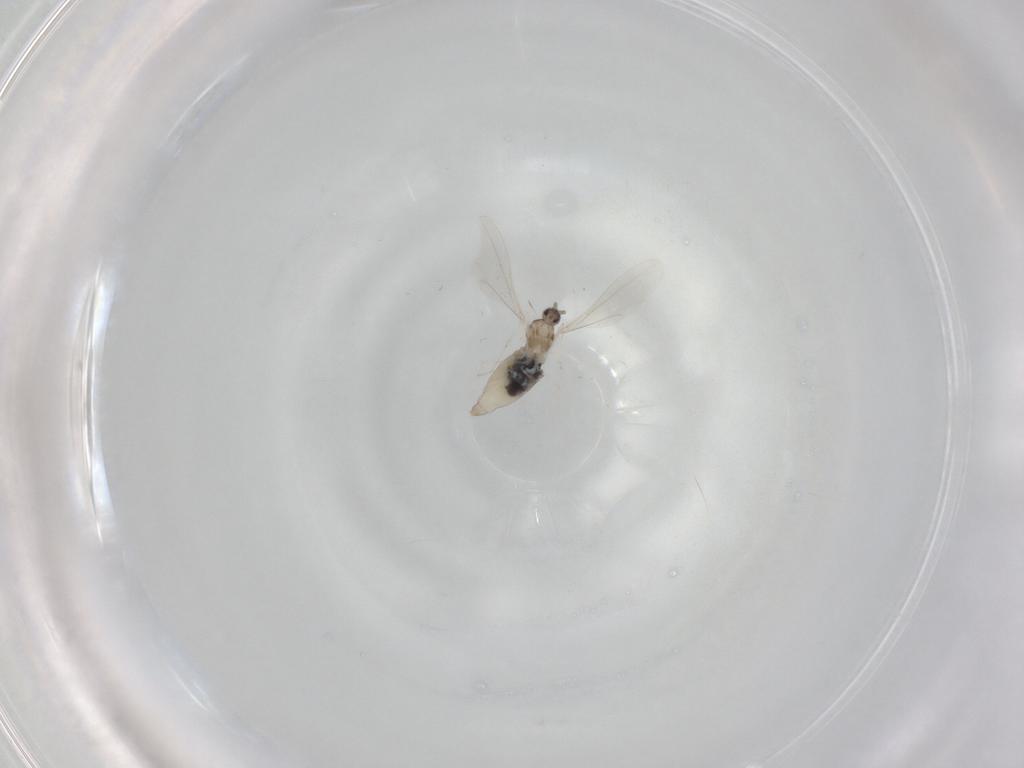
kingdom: Animalia
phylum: Arthropoda
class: Insecta
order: Diptera
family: Cecidomyiidae
